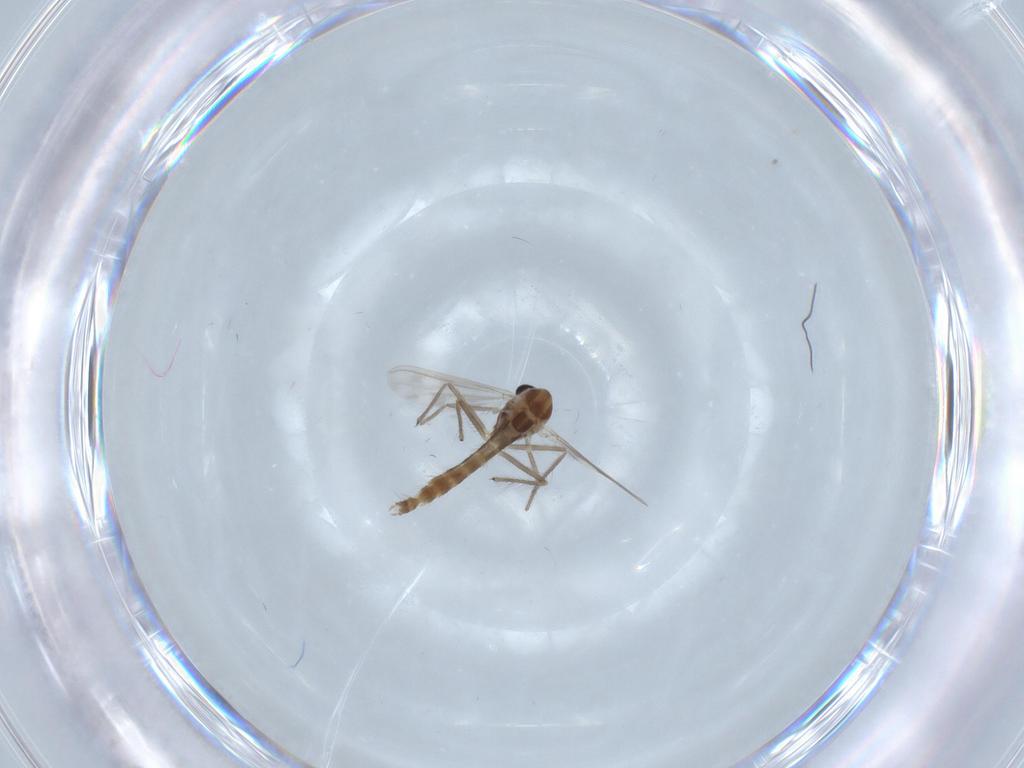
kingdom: Animalia
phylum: Arthropoda
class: Insecta
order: Diptera
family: Chironomidae
